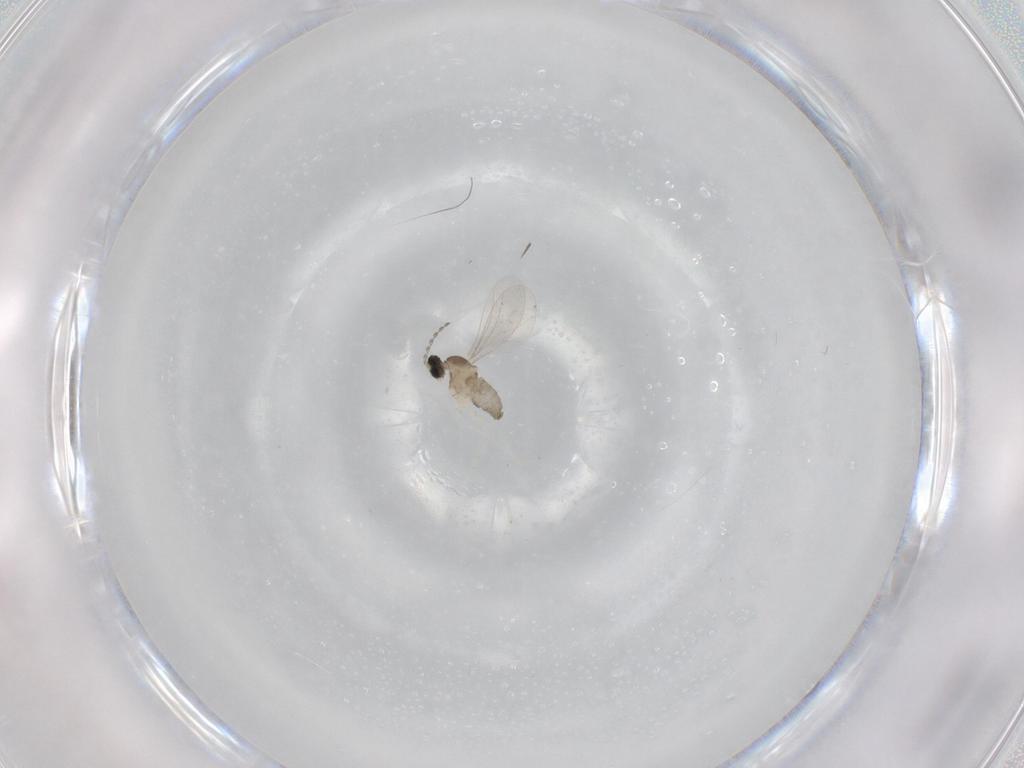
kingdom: Animalia
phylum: Arthropoda
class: Insecta
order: Diptera
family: Cecidomyiidae
